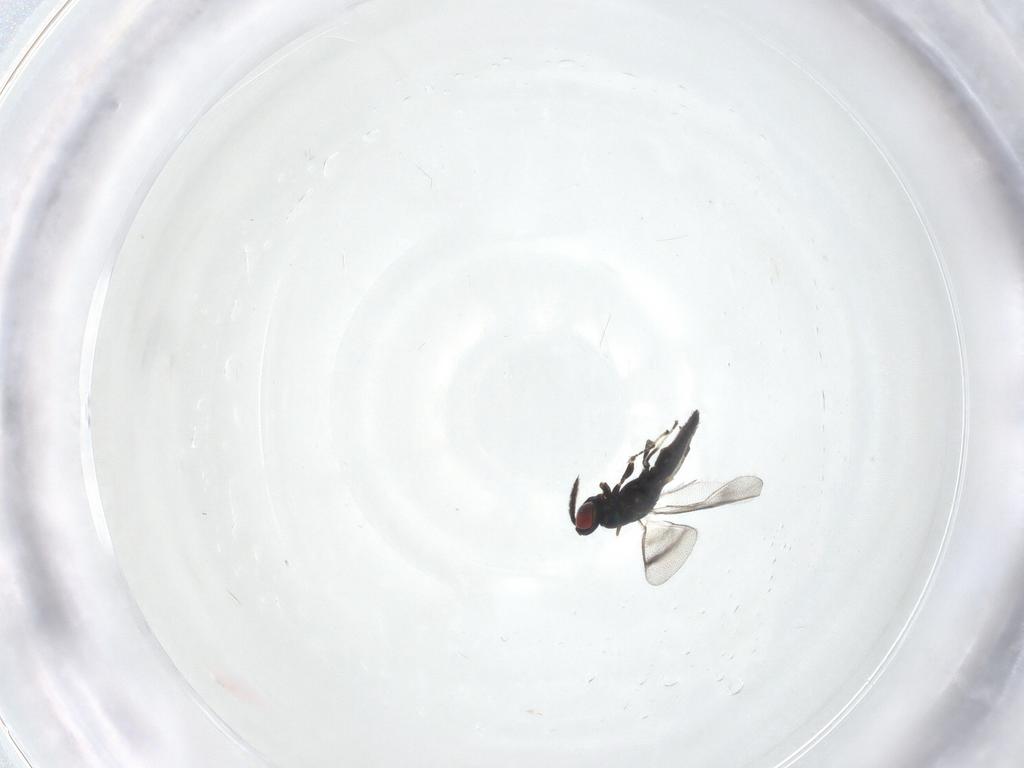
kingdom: Animalia
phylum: Arthropoda
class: Insecta
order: Hymenoptera
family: Eulophidae
